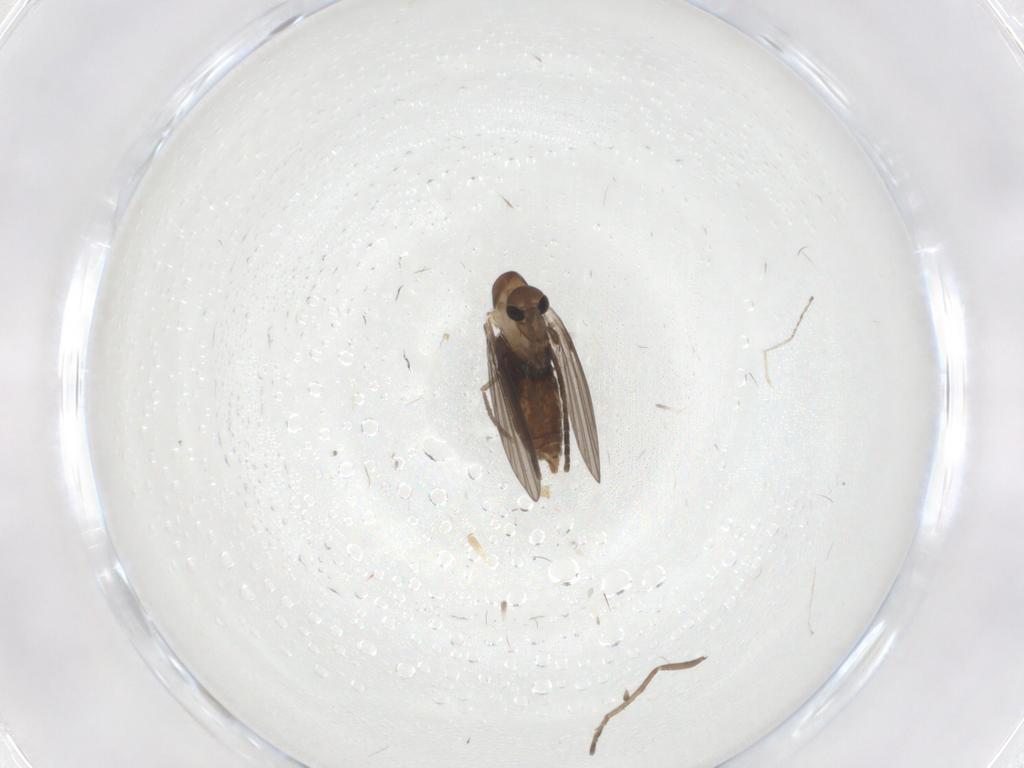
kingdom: Animalia
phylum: Arthropoda
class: Insecta
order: Diptera
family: Psychodidae
